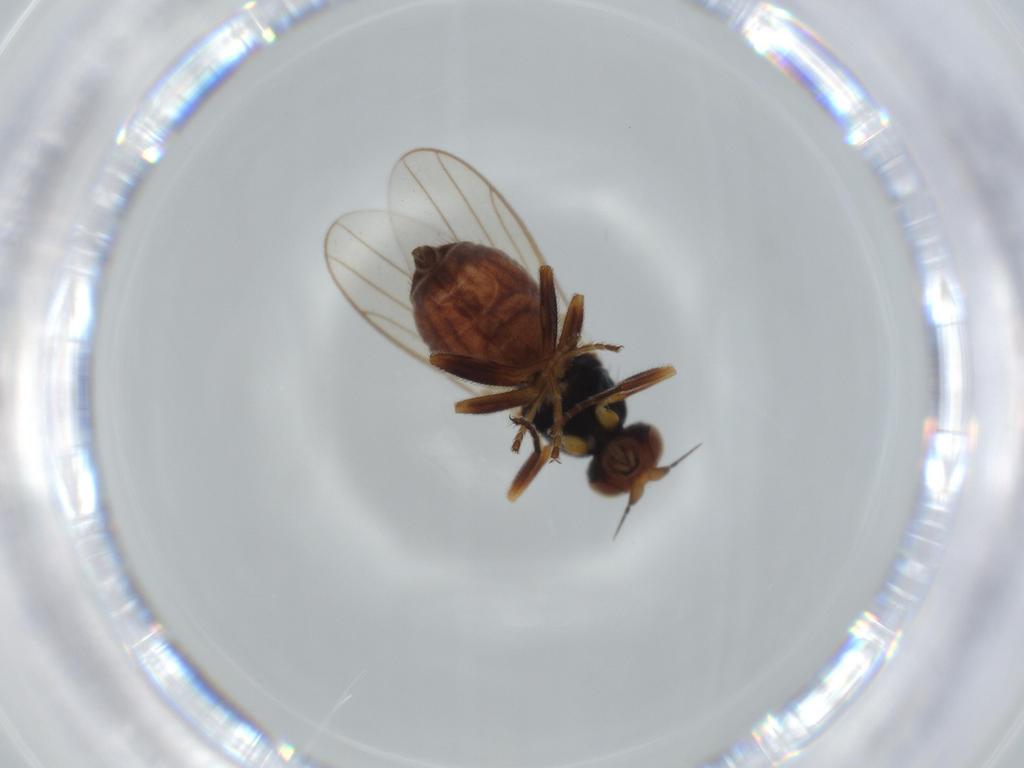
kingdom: Animalia
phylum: Arthropoda
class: Insecta
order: Diptera
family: Empididae
